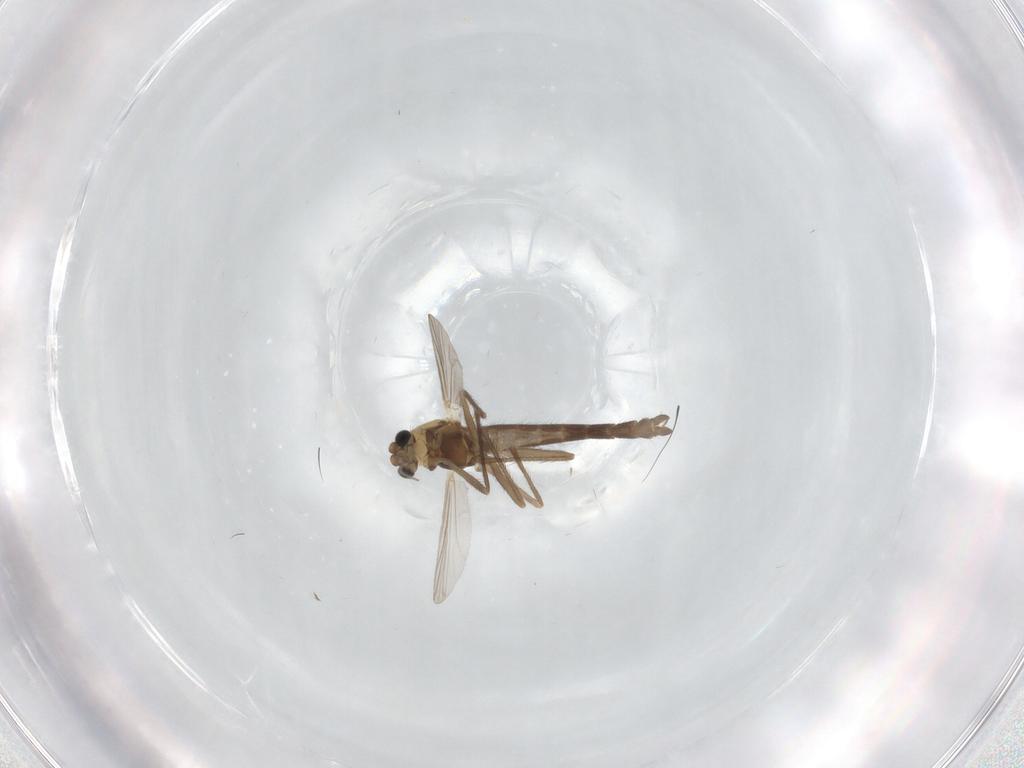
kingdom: Animalia
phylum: Arthropoda
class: Insecta
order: Diptera
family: Chironomidae
